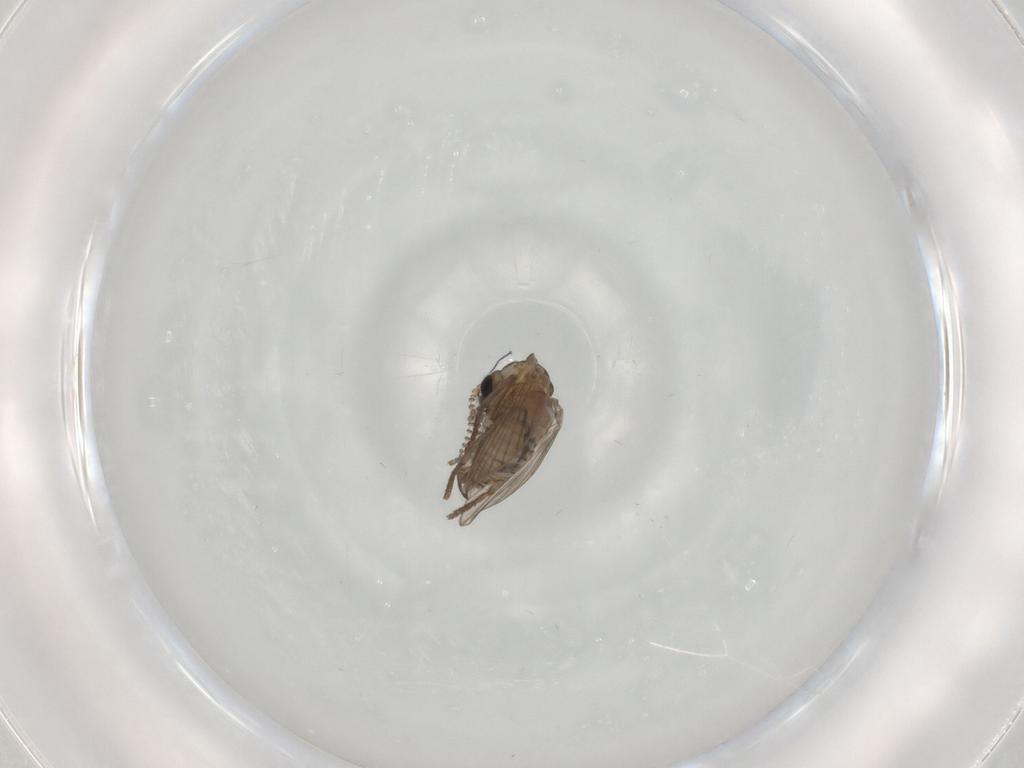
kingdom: Animalia
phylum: Arthropoda
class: Insecta
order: Diptera
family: Psychodidae
